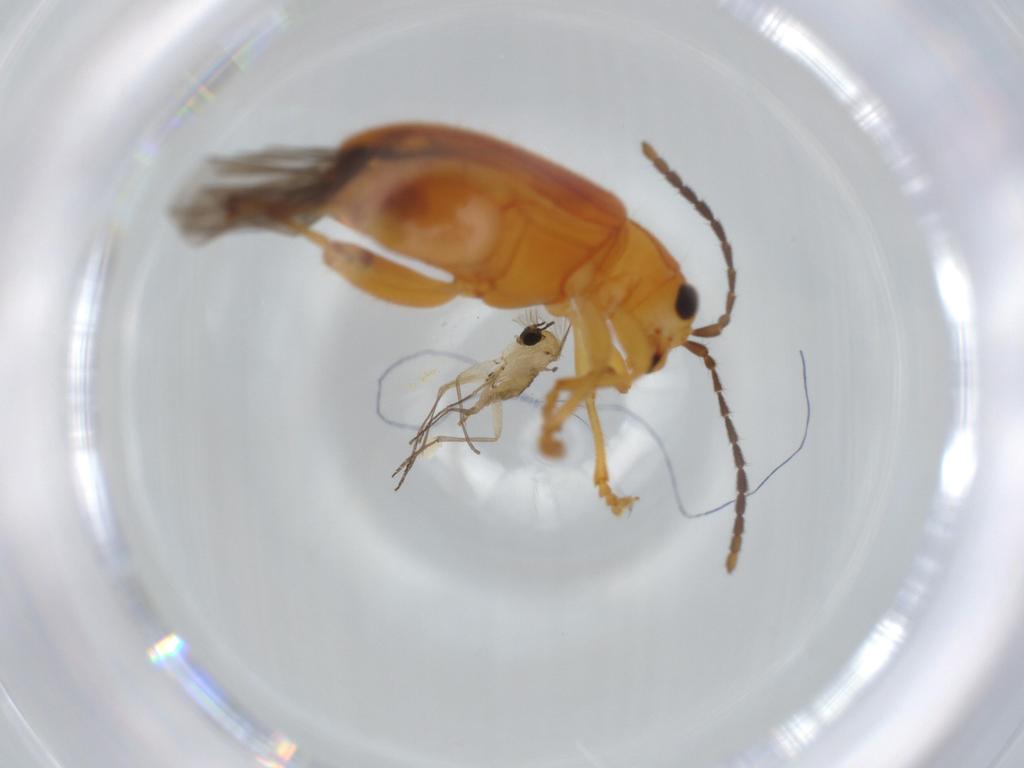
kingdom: Animalia
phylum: Arthropoda
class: Insecta
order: Coleoptera
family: Chrysomelidae
